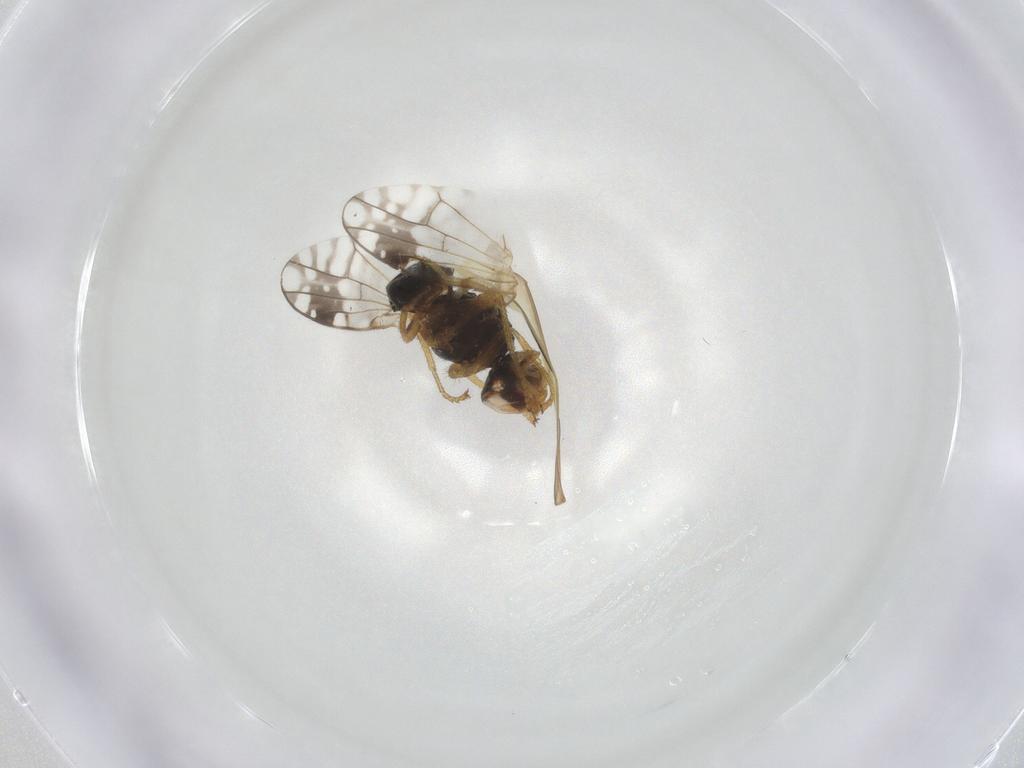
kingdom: Animalia
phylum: Arthropoda
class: Insecta
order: Diptera
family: Tephritidae
